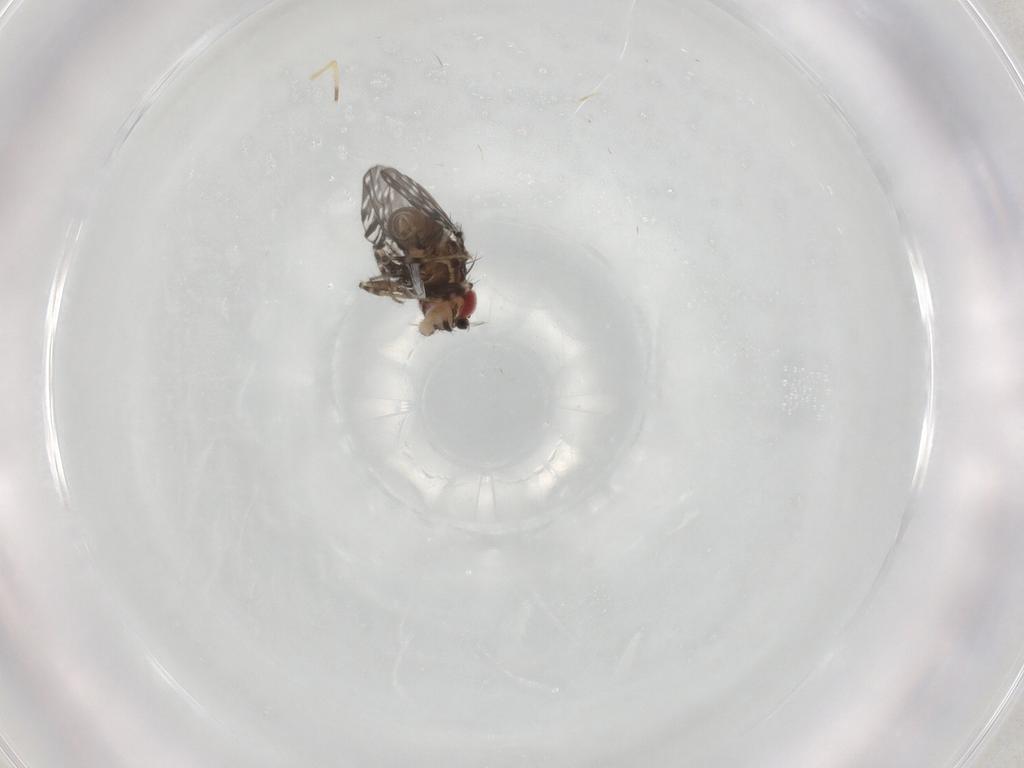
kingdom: Animalia
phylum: Arthropoda
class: Insecta
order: Diptera
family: Drosophilidae
